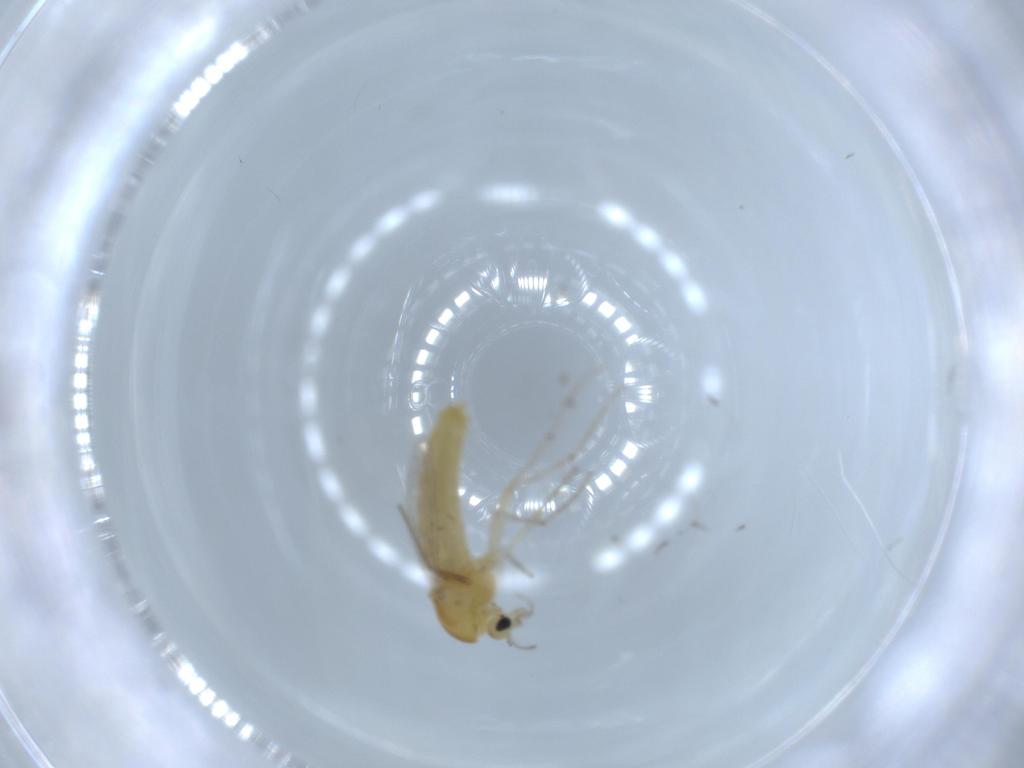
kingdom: Animalia
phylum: Arthropoda
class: Insecta
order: Diptera
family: Chironomidae
